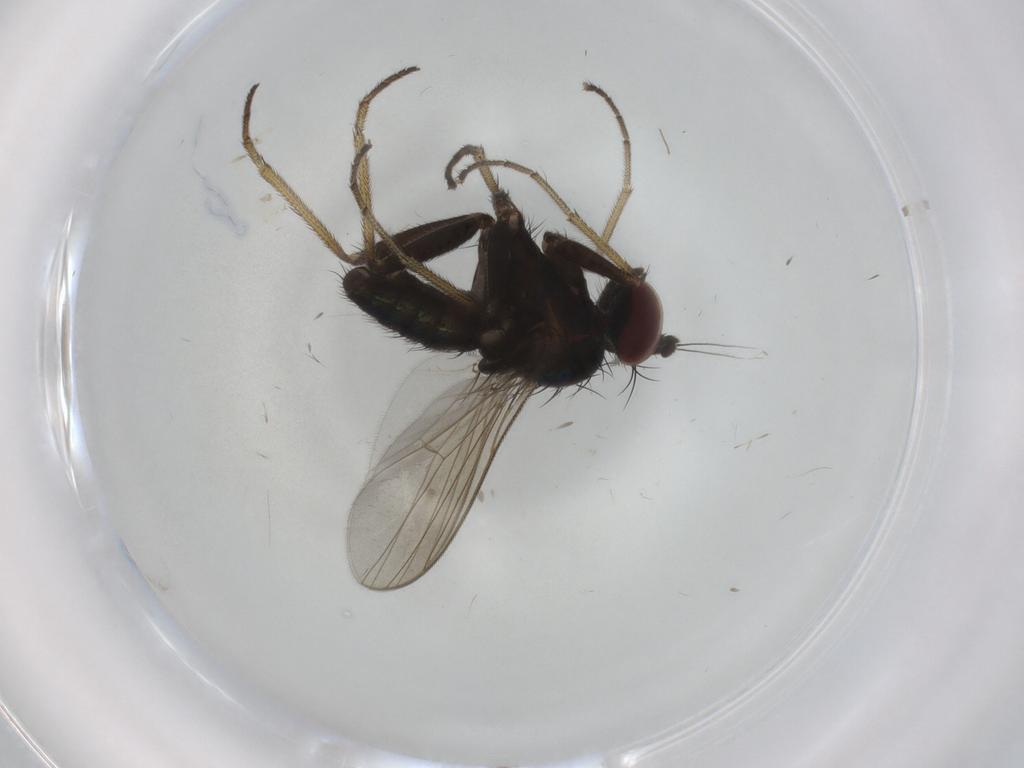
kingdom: Animalia
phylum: Arthropoda
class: Insecta
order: Diptera
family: Dolichopodidae
